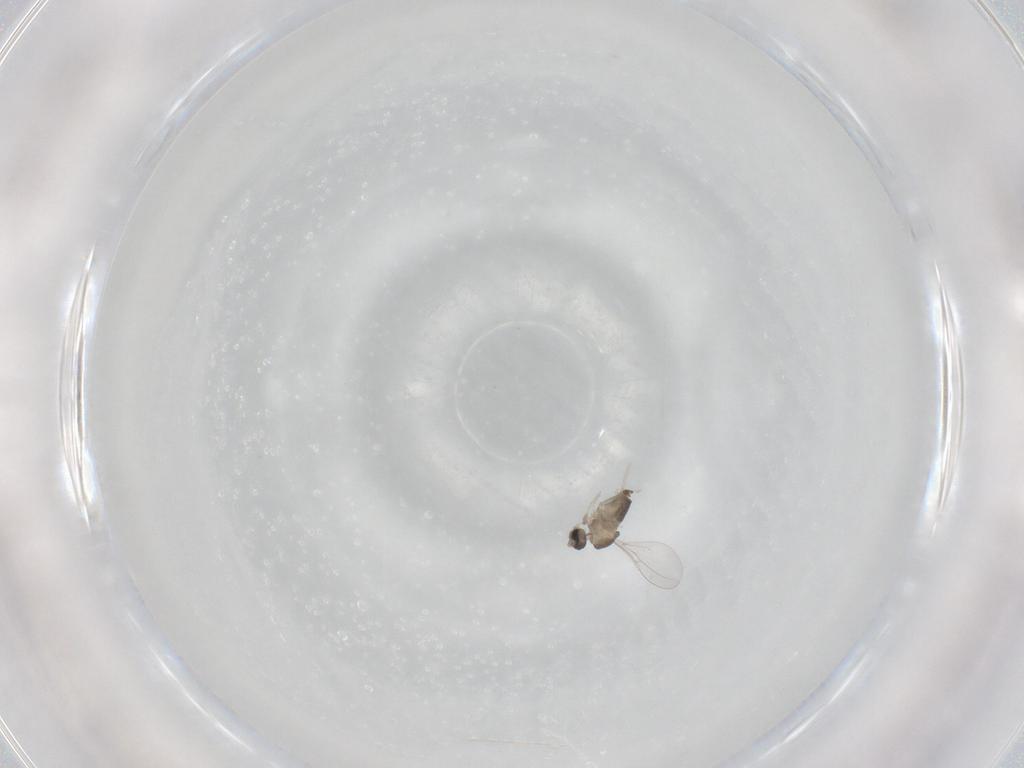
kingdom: Animalia
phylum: Arthropoda
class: Insecta
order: Diptera
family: Cecidomyiidae
